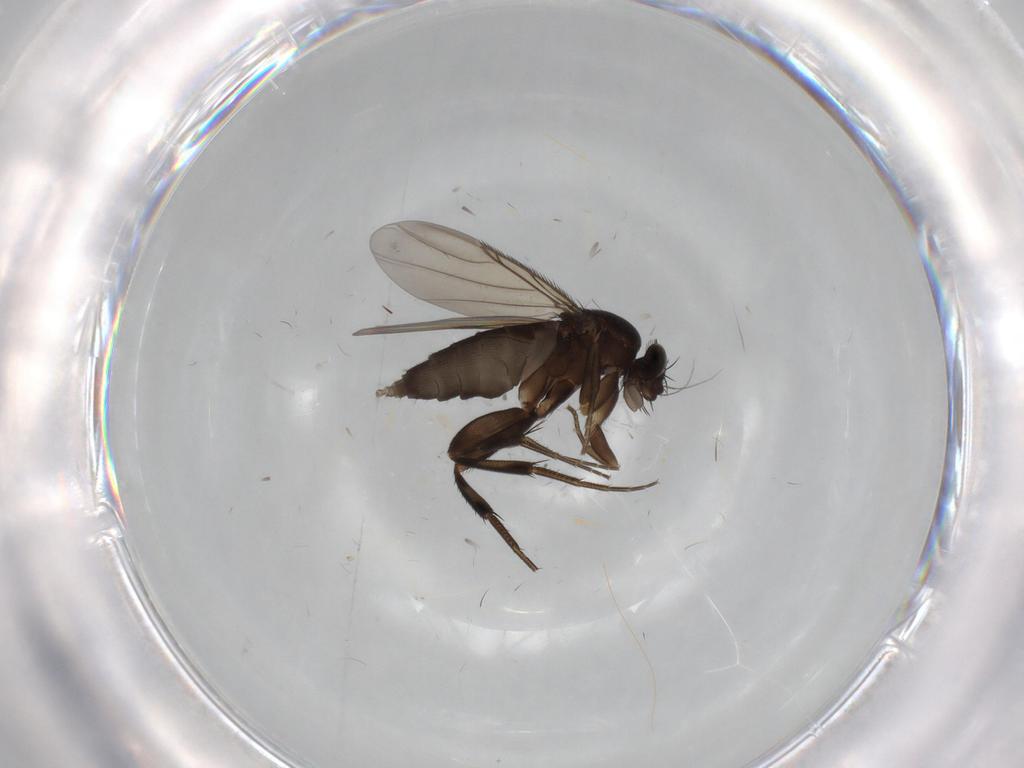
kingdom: Animalia
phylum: Arthropoda
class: Insecta
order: Diptera
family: Phoridae
